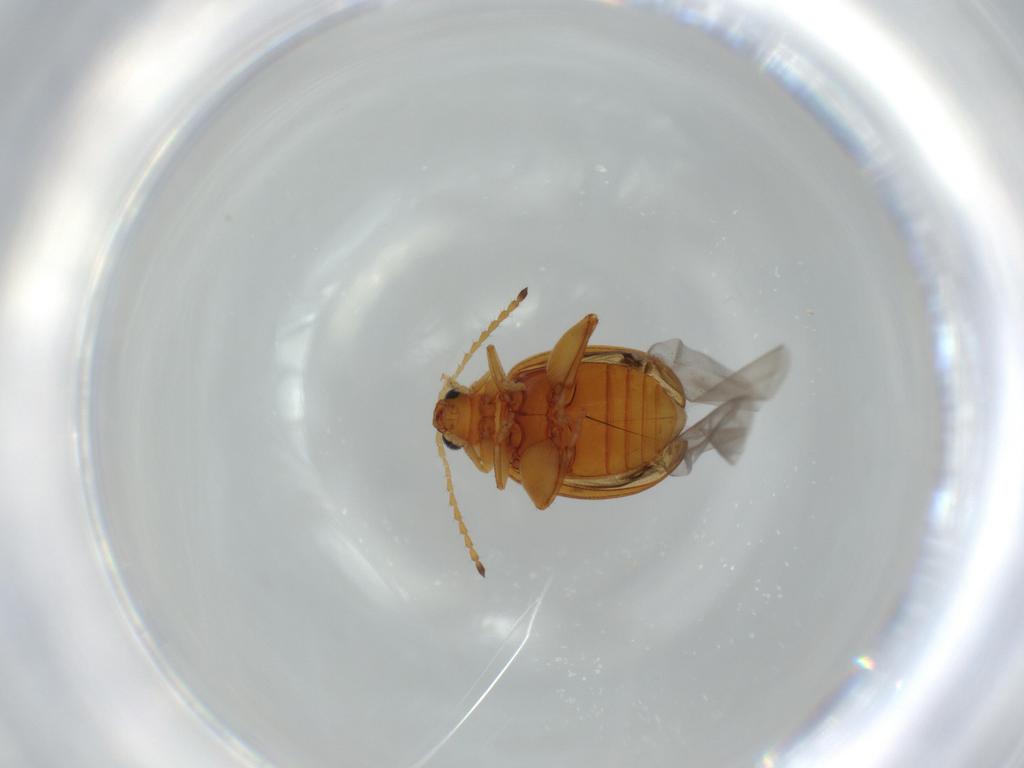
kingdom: Animalia
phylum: Arthropoda
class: Insecta
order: Coleoptera
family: Chrysomelidae
